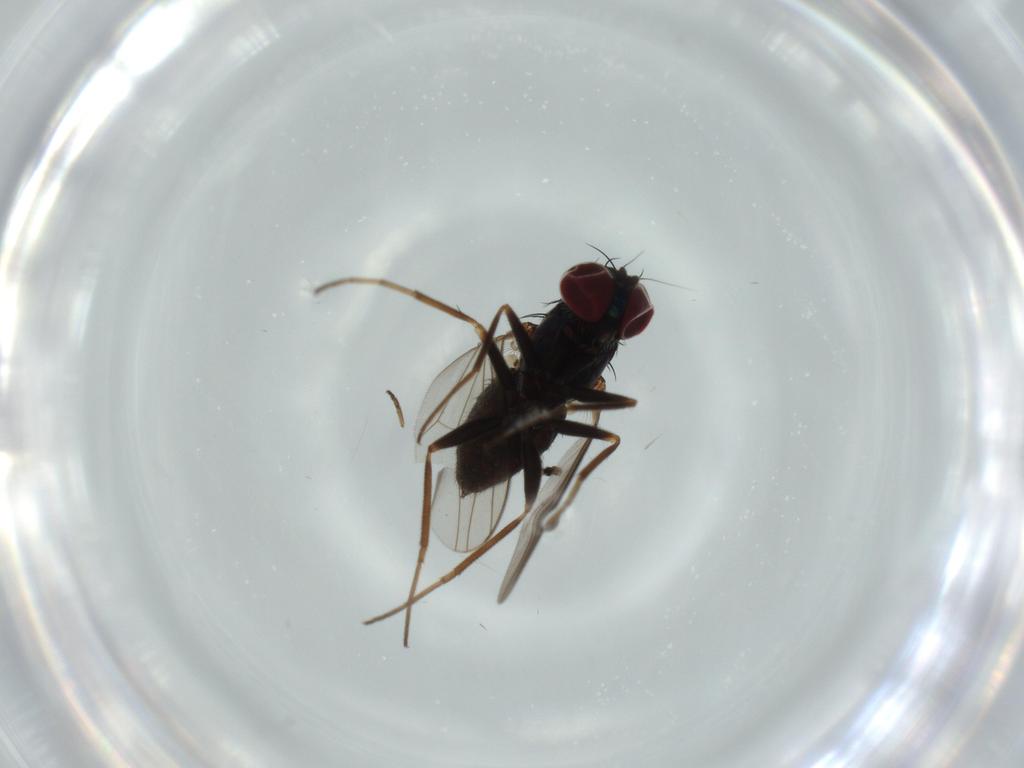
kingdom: Animalia
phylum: Arthropoda
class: Insecta
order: Diptera
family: Dolichopodidae
